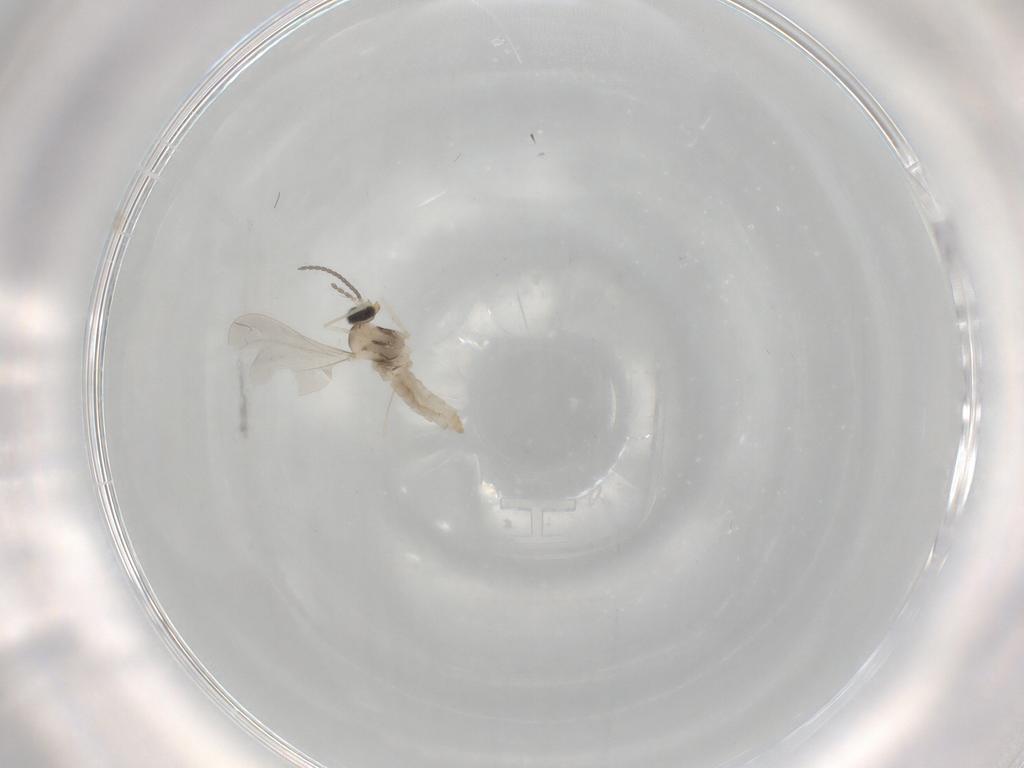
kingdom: Animalia
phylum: Arthropoda
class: Insecta
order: Diptera
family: Cecidomyiidae
